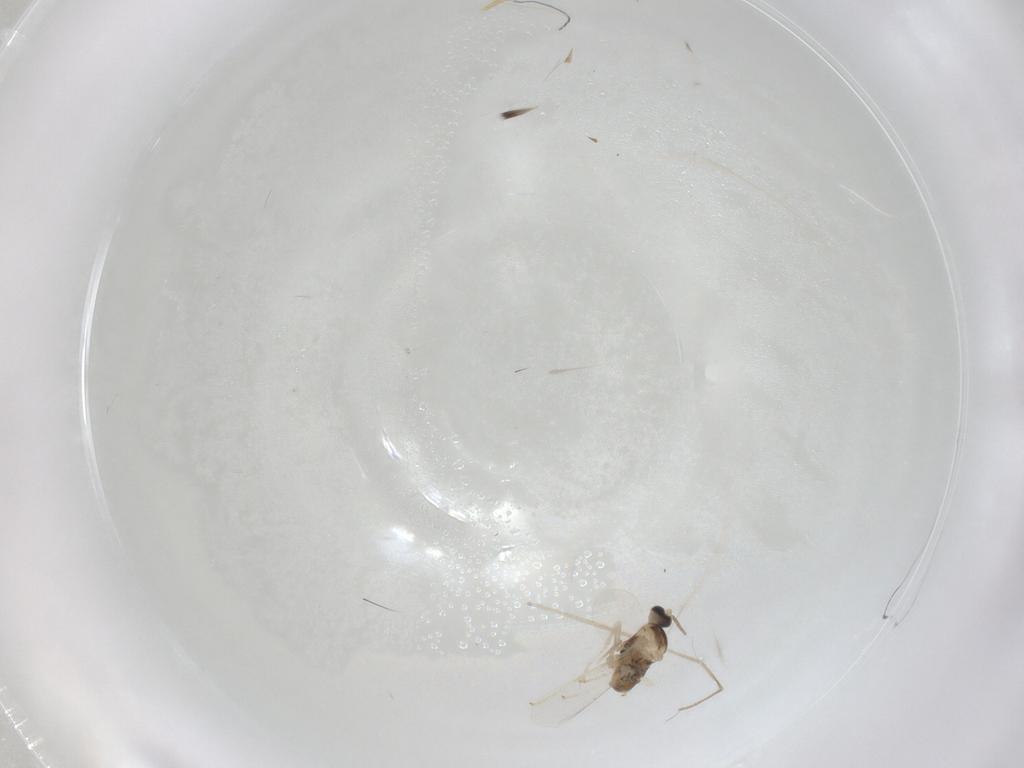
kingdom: Animalia
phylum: Arthropoda
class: Insecta
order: Diptera
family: Cecidomyiidae
